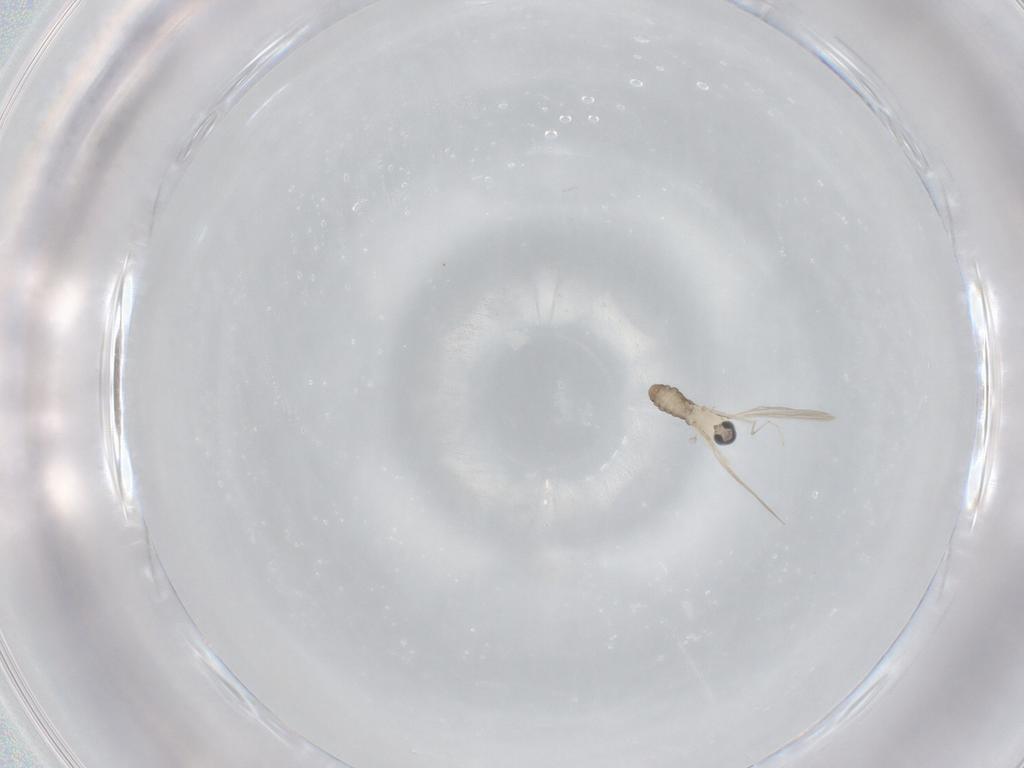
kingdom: Animalia
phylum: Arthropoda
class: Insecta
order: Diptera
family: Cecidomyiidae
